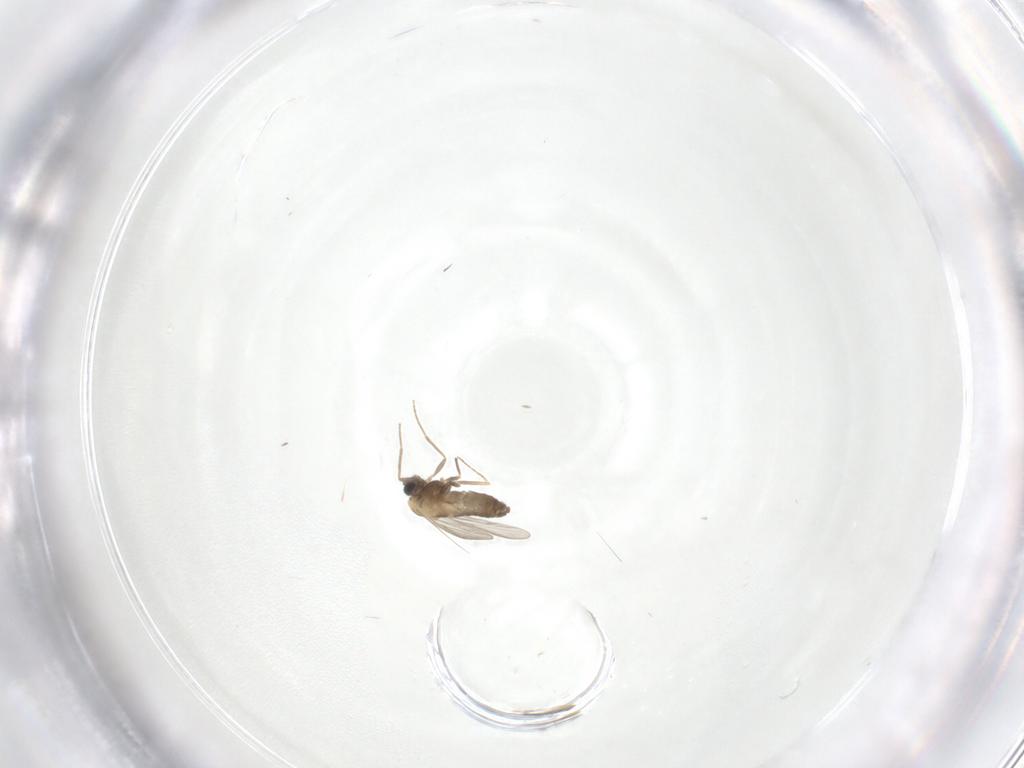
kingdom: Animalia
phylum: Arthropoda
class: Insecta
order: Diptera
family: Chironomidae
